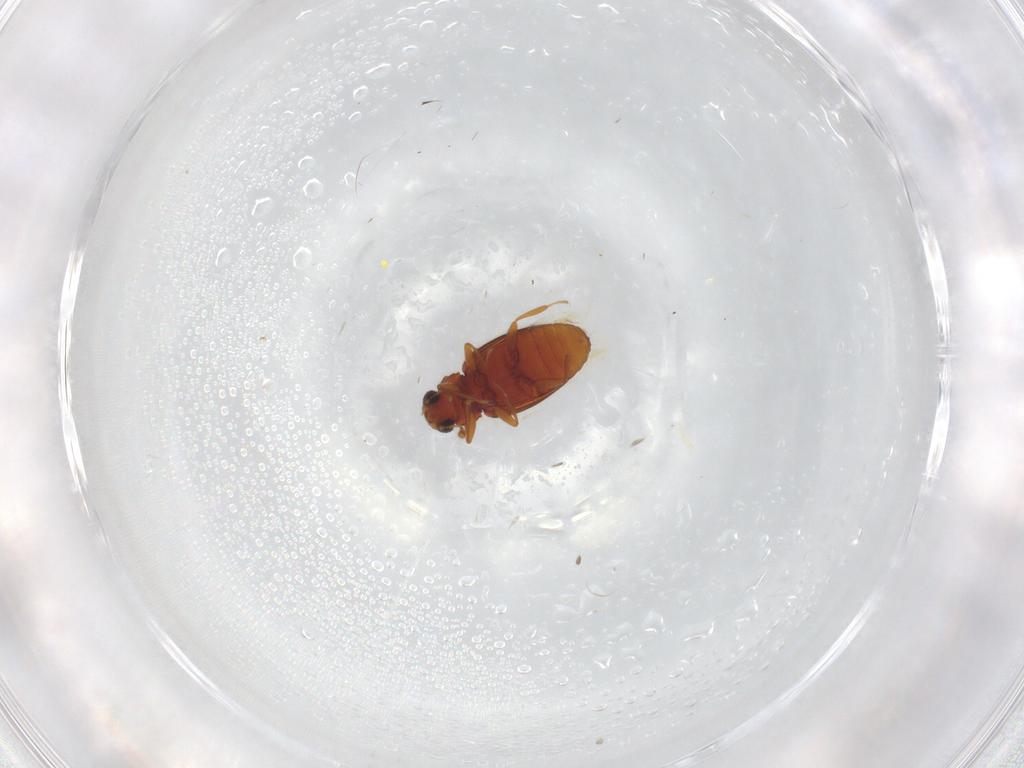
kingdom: Animalia
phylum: Arthropoda
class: Insecta
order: Coleoptera
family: Latridiidae
